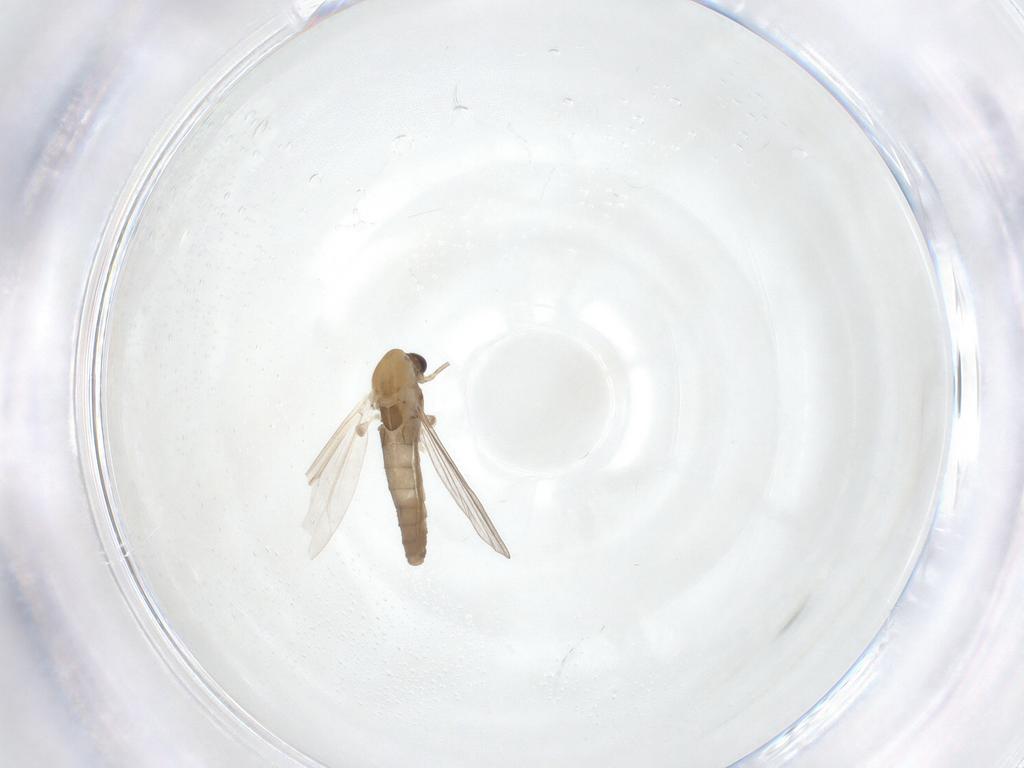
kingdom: Animalia
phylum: Arthropoda
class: Insecta
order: Diptera
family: Chironomidae
